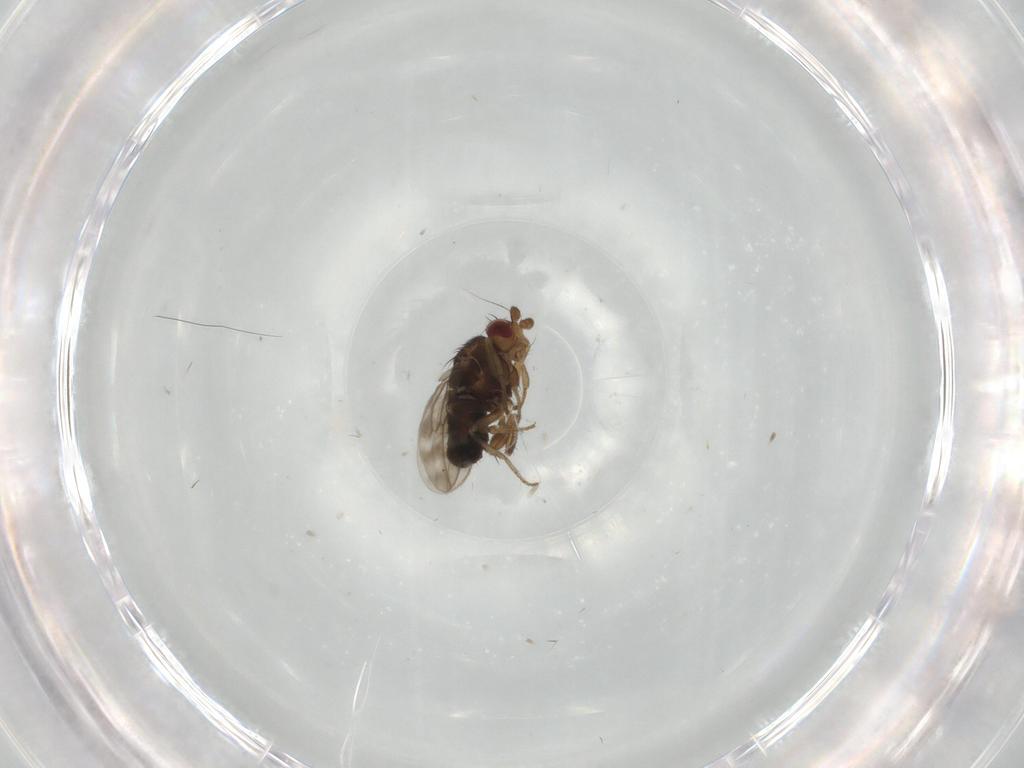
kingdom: Animalia
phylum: Arthropoda
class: Insecta
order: Diptera
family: Sphaeroceridae
